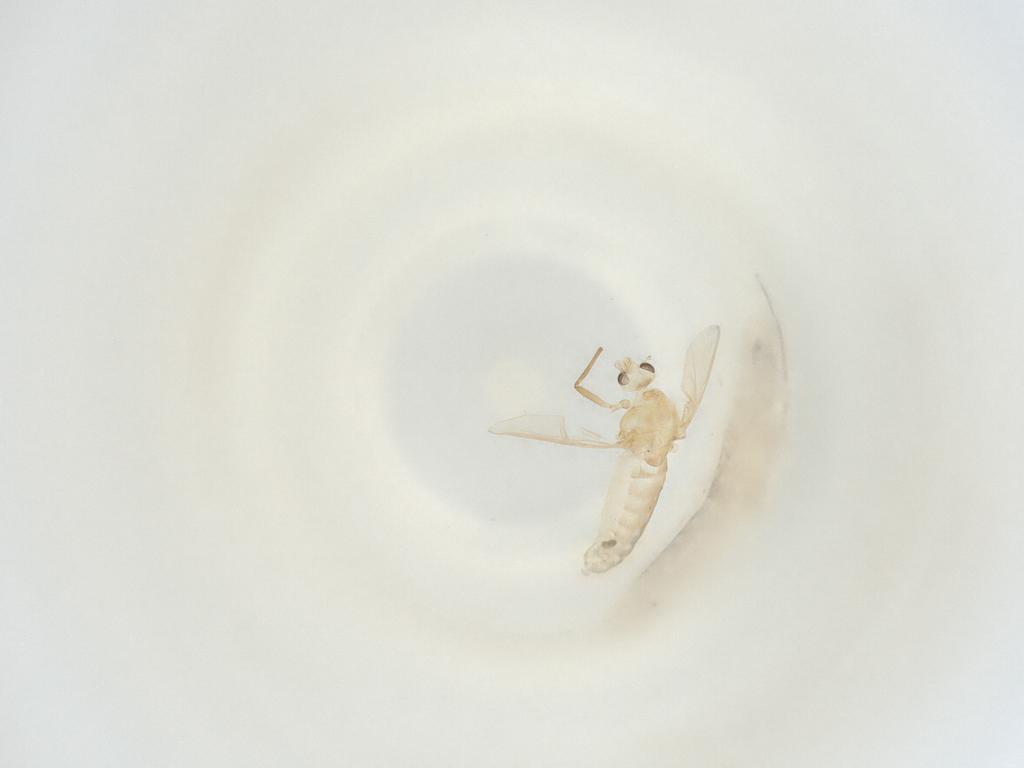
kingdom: Animalia
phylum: Arthropoda
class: Insecta
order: Diptera
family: Chironomidae
